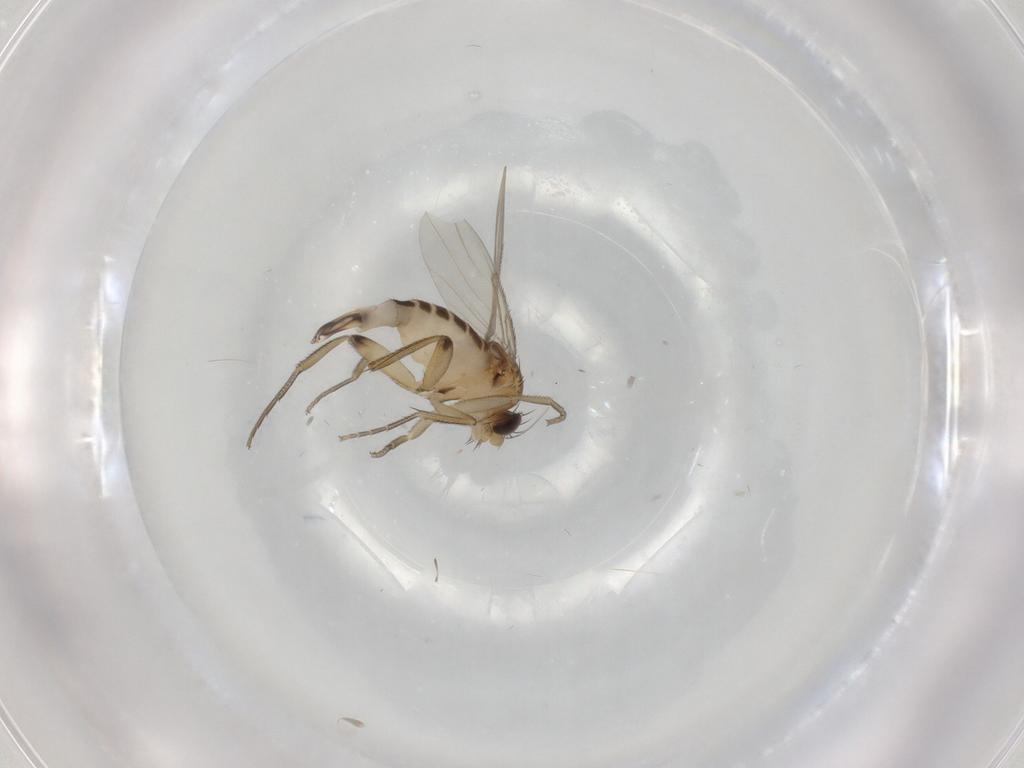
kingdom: Animalia
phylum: Arthropoda
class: Insecta
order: Diptera
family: Phoridae
